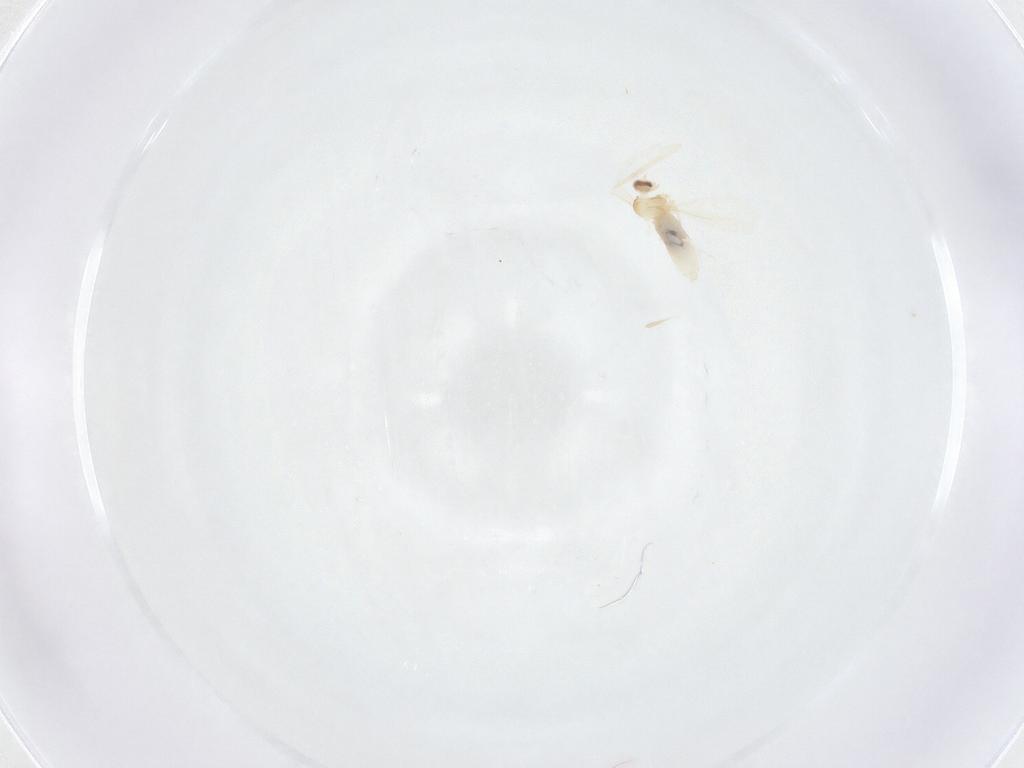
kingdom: Animalia
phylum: Arthropoda
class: Insecta
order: Diptera
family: Cecidomyiidae
